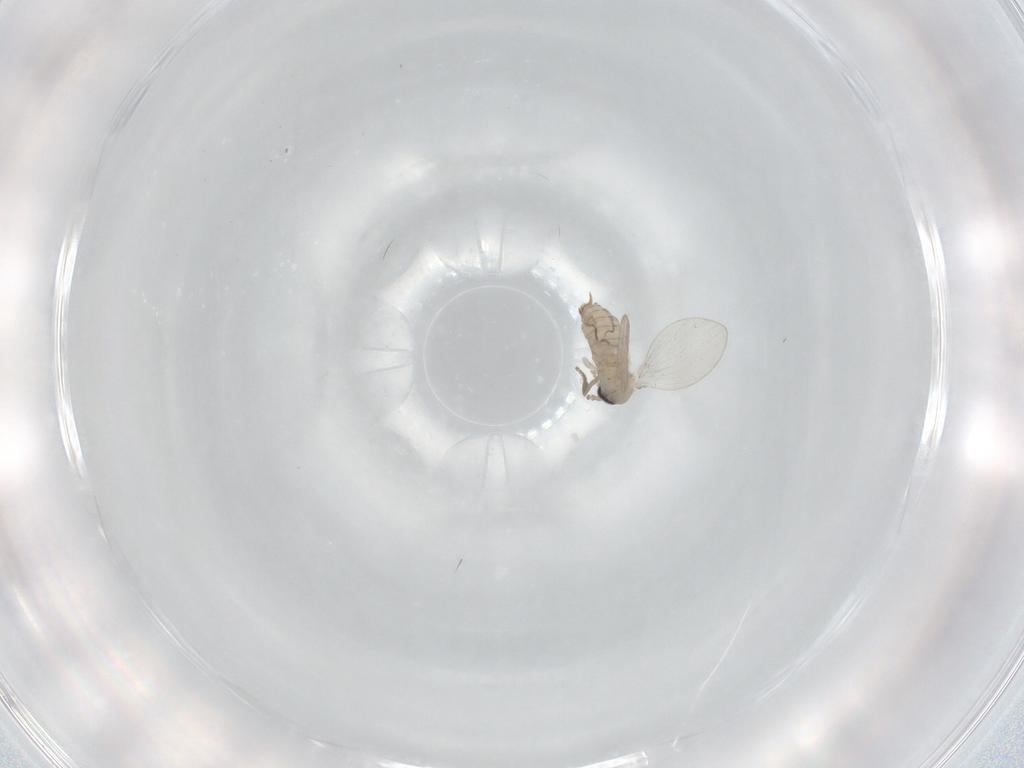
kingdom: Animalia
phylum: Arthropoda
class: Insecta
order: Diptera
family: Psychodidae
